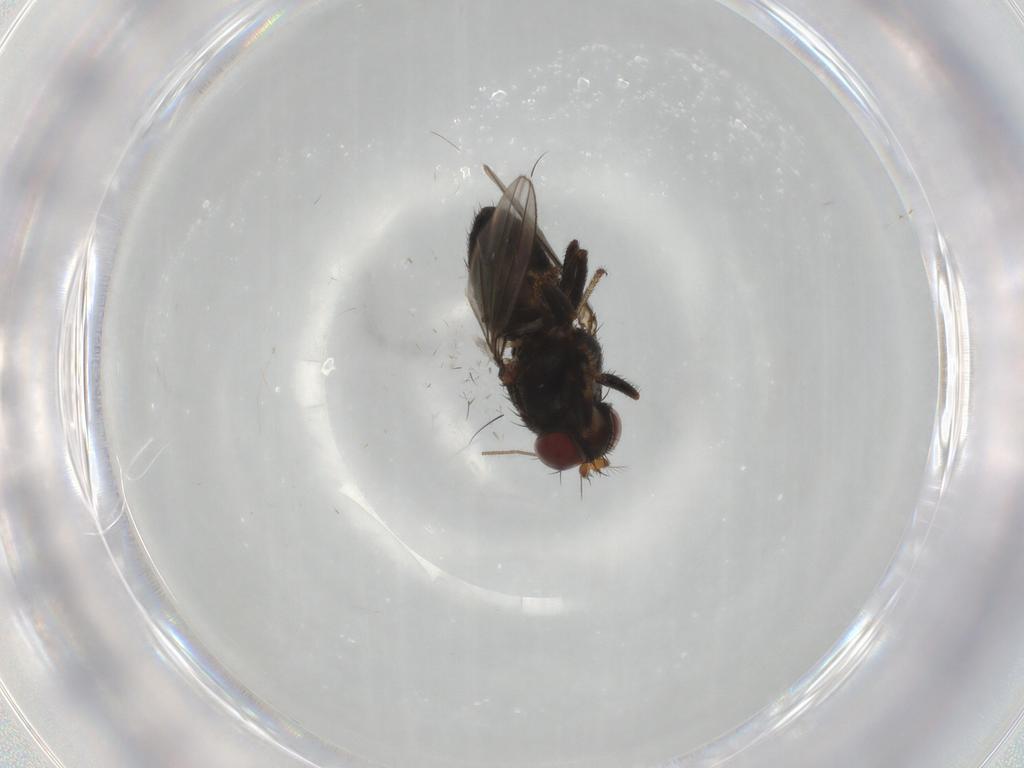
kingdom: Animalia
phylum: Arthropoda
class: Insecta
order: Diptera
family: Ephydridae
